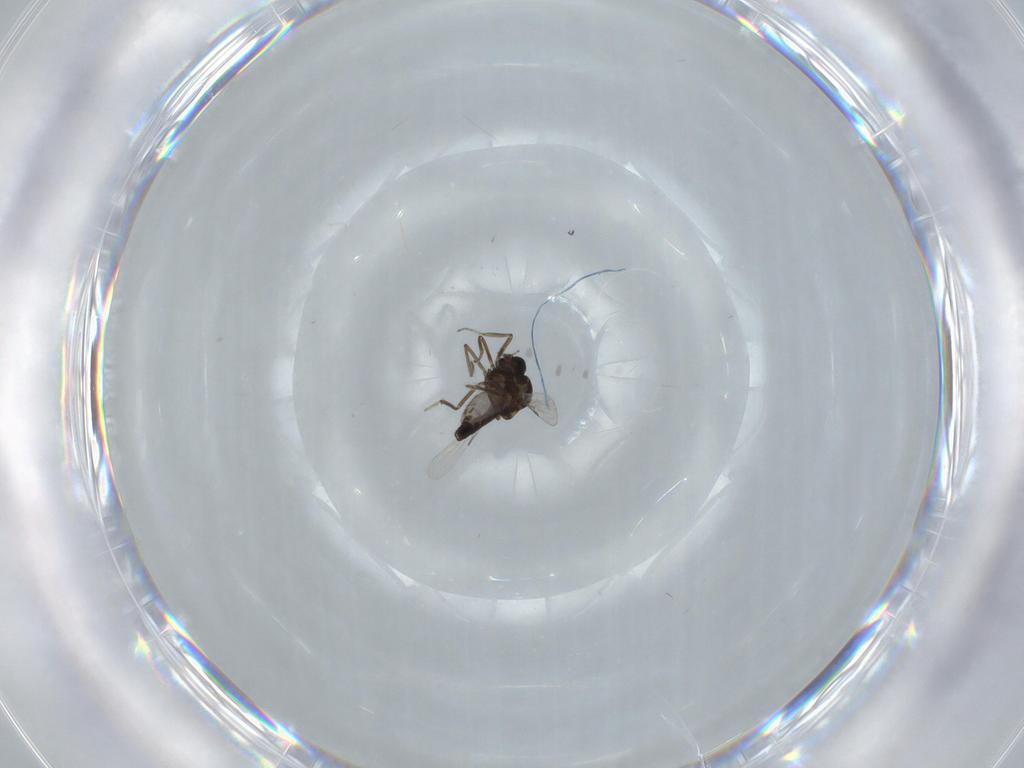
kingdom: Animalia
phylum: Arthropoda
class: Insecta
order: Diptera
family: Ceratopogonidae
